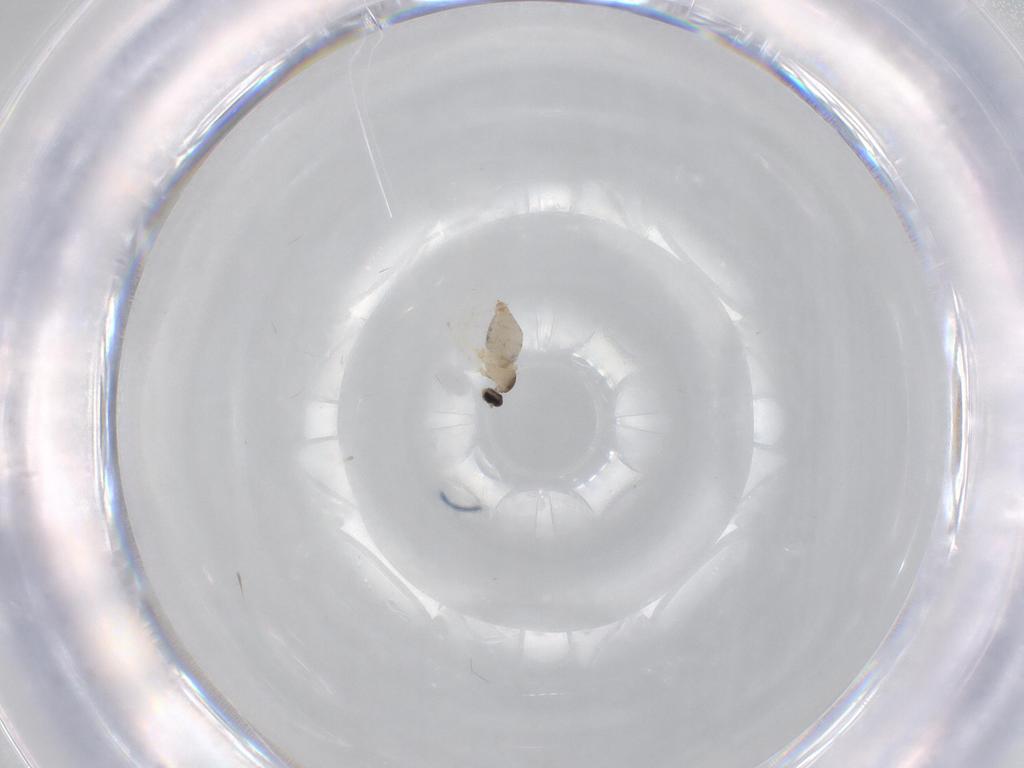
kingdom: Animalia
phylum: Arthropoda
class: Insecta
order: Diptera
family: Cecidomyiidae
